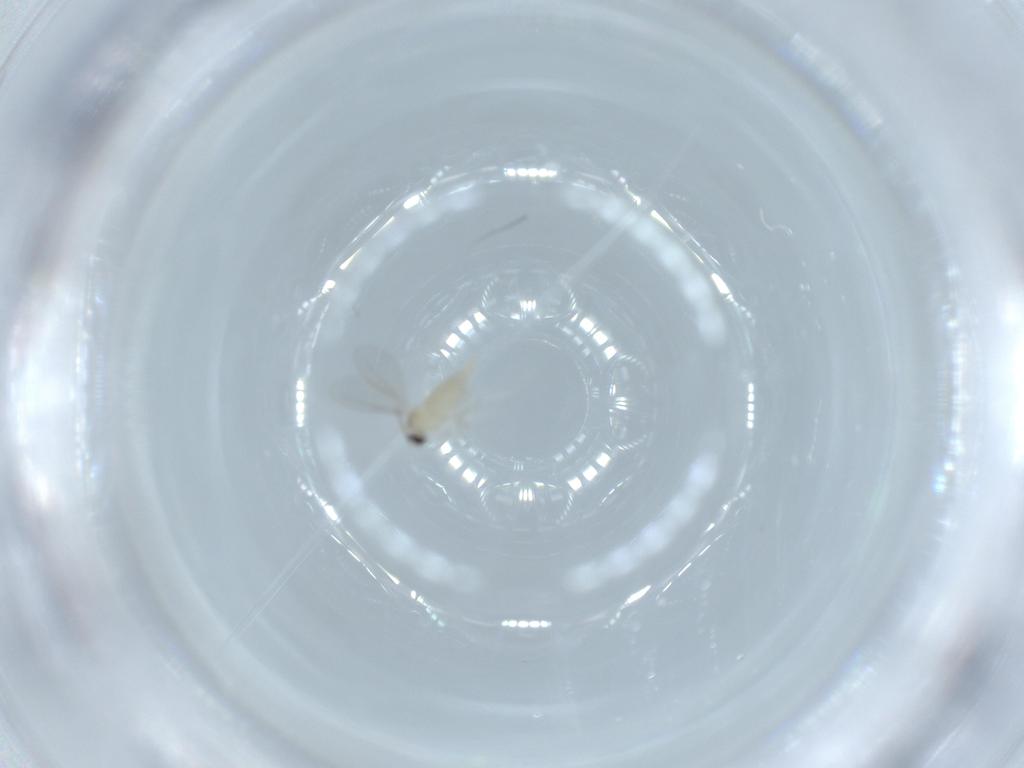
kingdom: Animalia
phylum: Arthropoda
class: Insecta
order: Diptera
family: Cecidomyiidae
